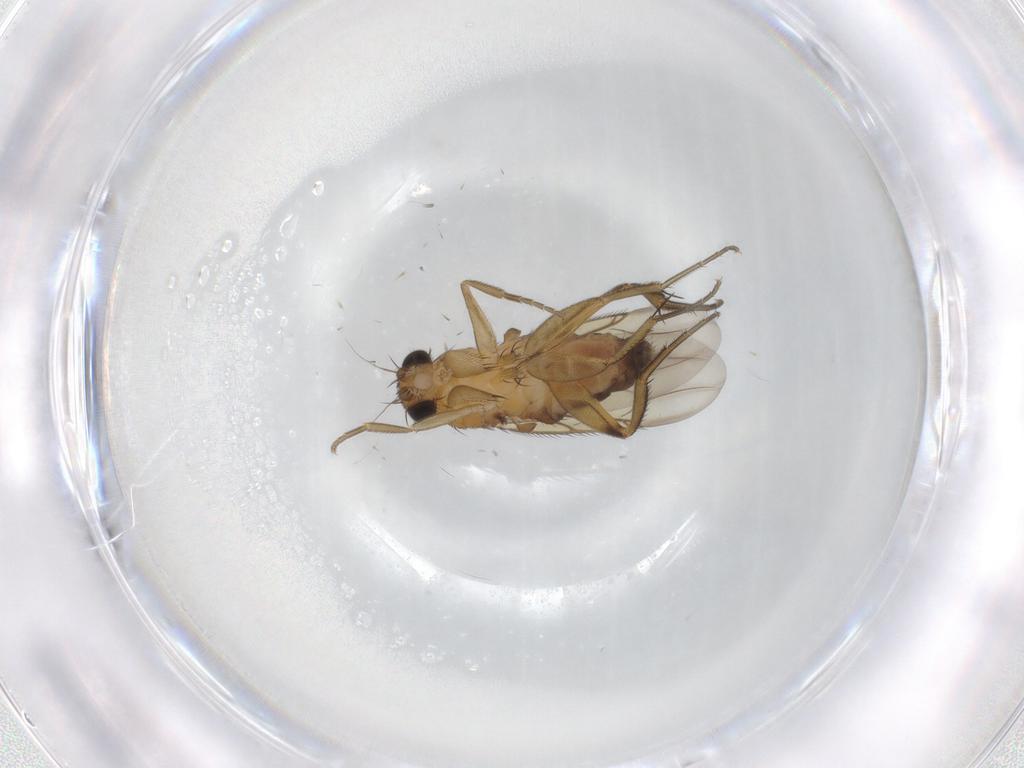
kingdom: Animalia
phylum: Arthropoda
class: Insecta
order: Diptera
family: Phoridae
